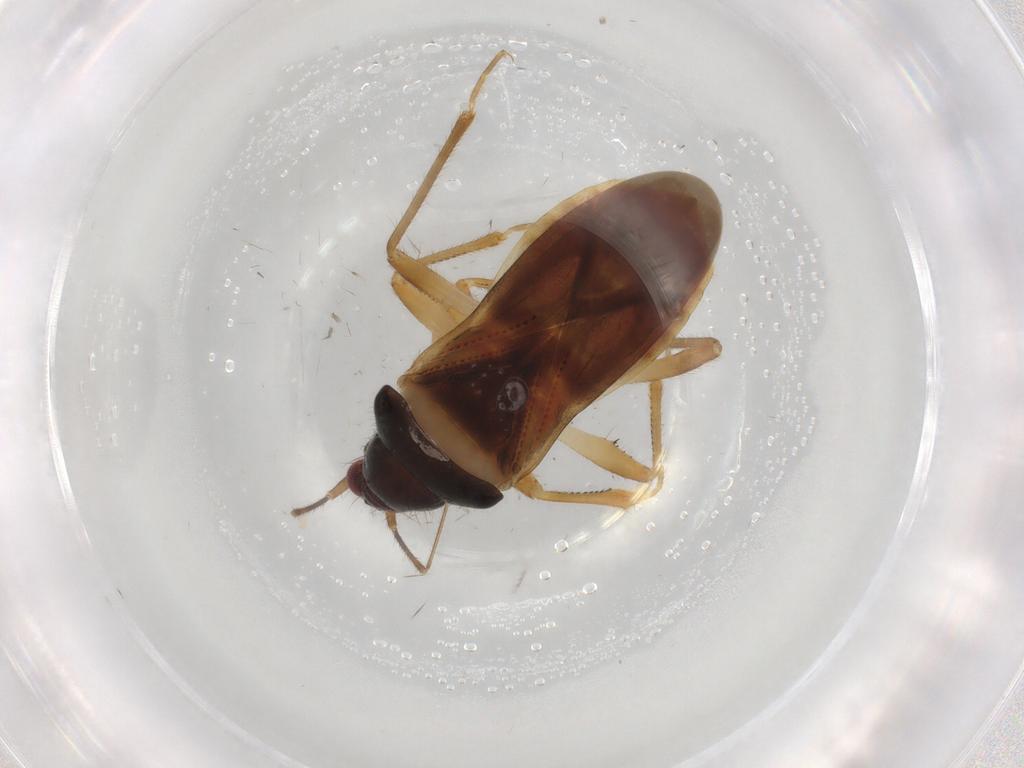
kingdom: Animalia
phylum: Arthropoda
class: Insecta
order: Hemiptera
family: Nabidae
